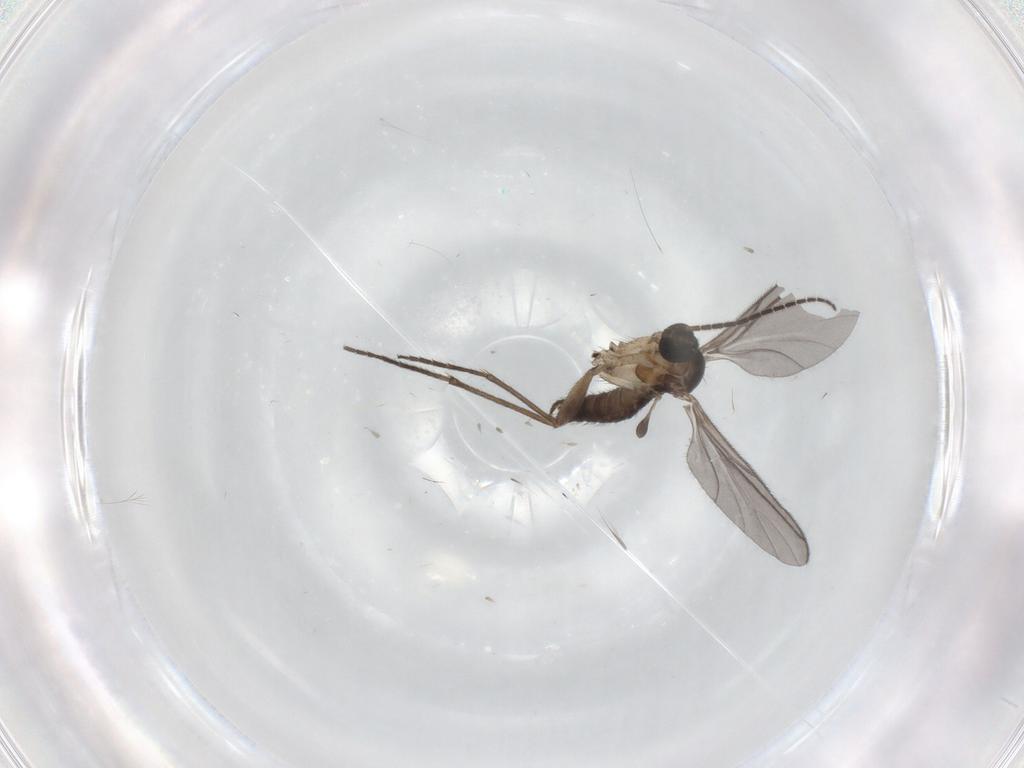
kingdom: Animalia
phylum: Arthropoda
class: Insecta
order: Diptera
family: Sciaridae
